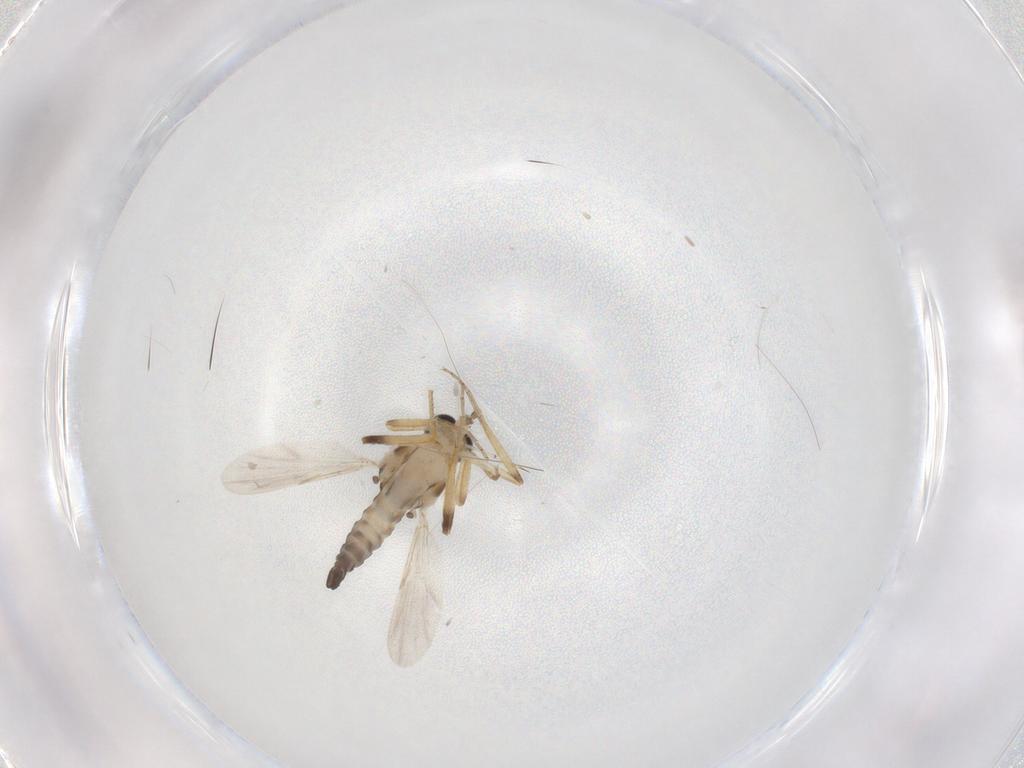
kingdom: Animalia
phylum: Arthropoda
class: Insecta
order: Diptera
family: Ceratopogonidae
